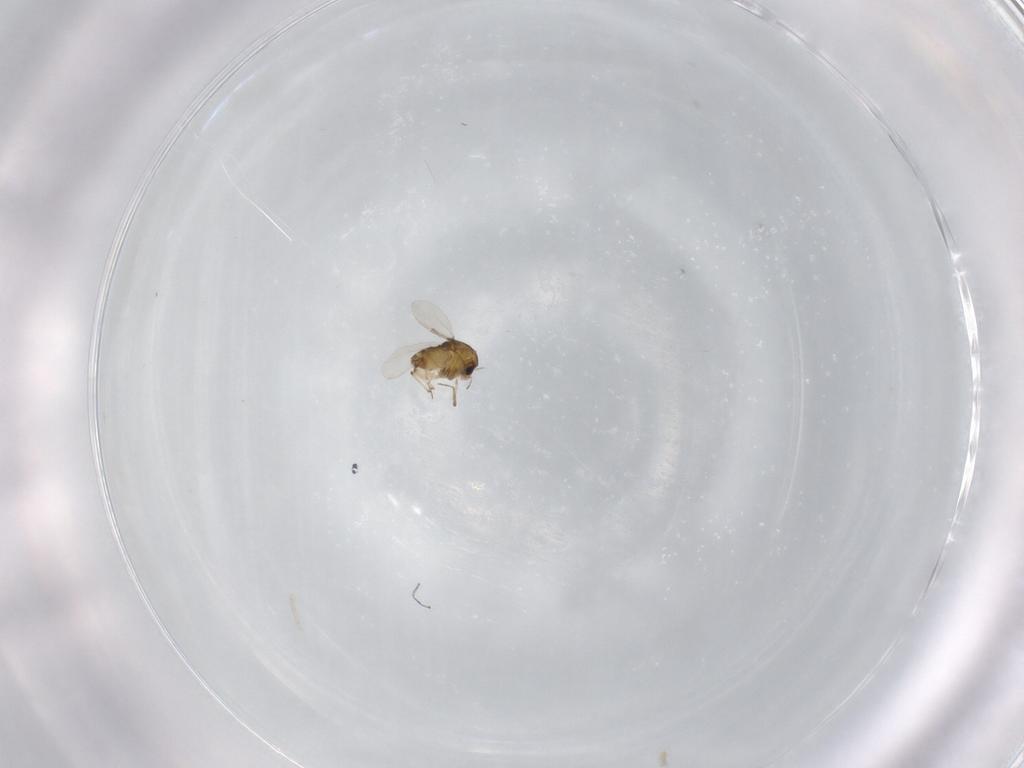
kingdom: Animalia
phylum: Arthropoda
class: Insecta
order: Diptera
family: Chironomidae
